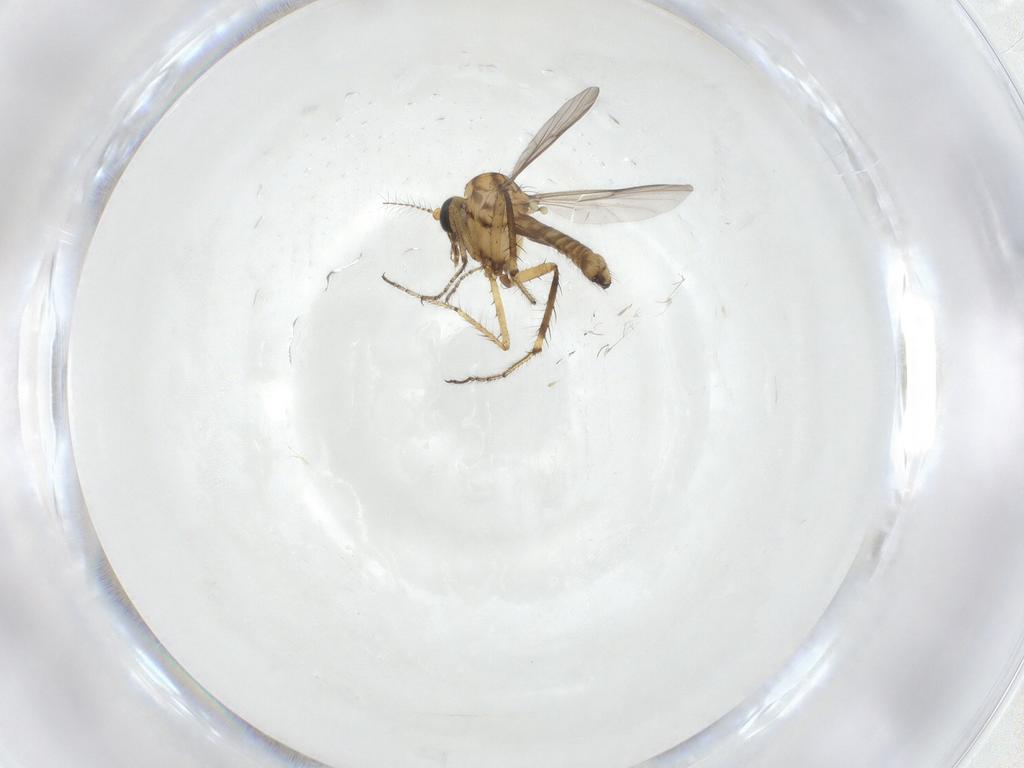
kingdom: Animalia
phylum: Arthropoda
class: Insecta
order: Diptera
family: Chironomidae
